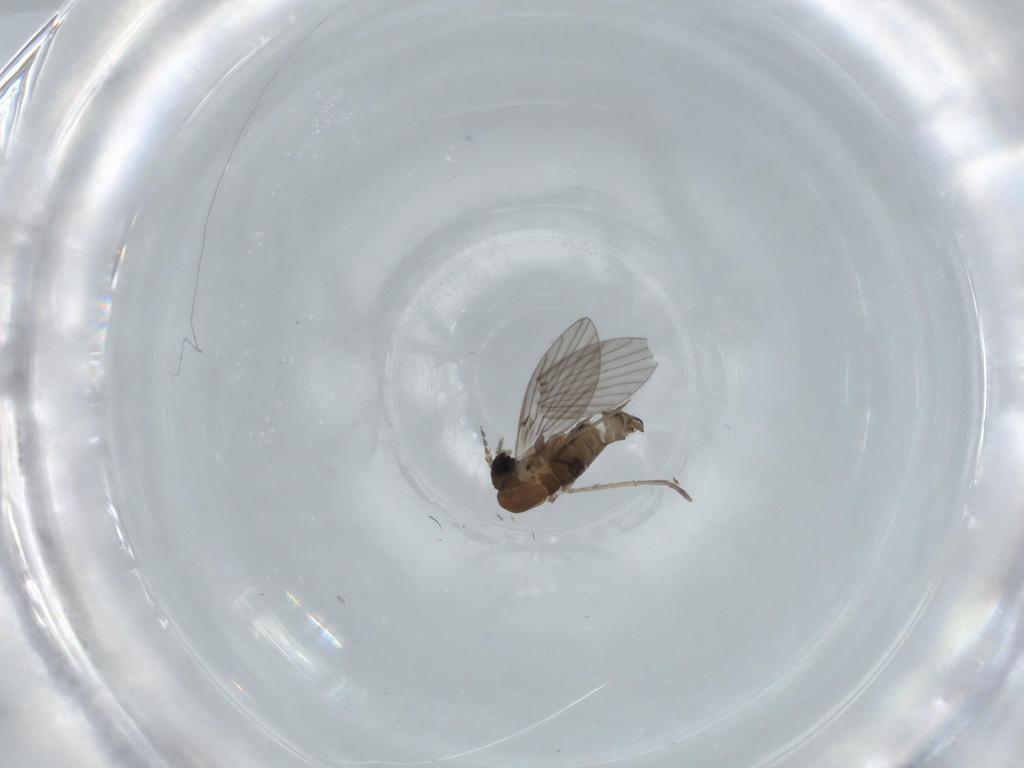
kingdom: Animalia
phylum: Arthropoda
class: Insecta
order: Diptera
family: Psychodidae
